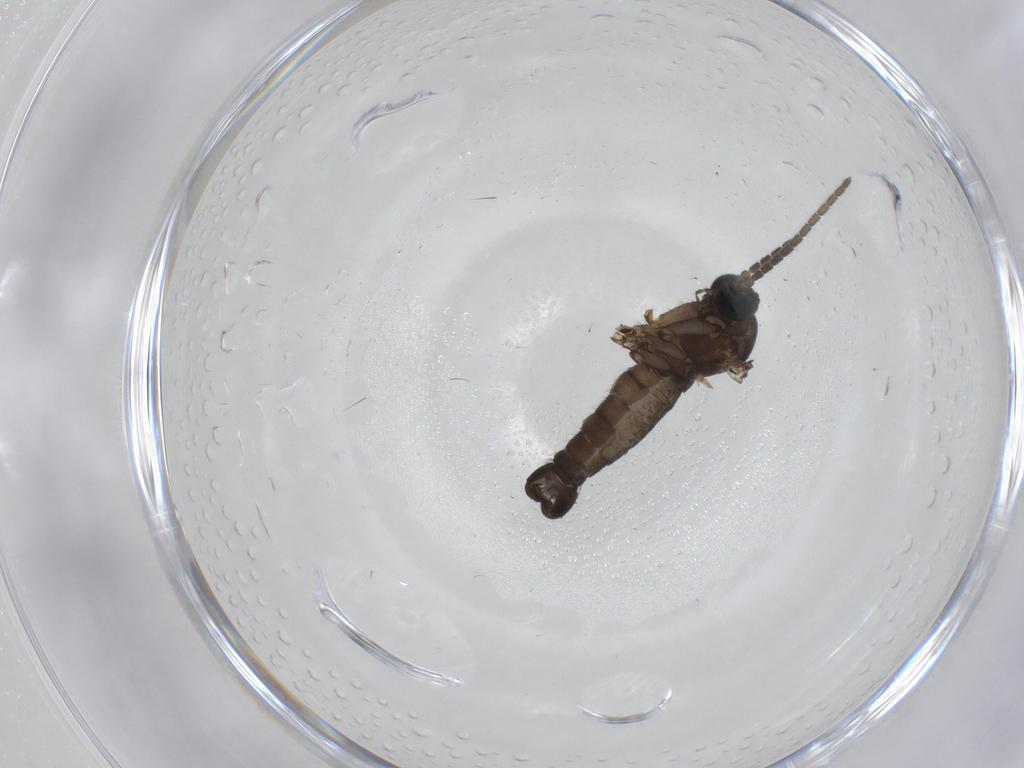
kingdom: Animalia
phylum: Arthropoda
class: Insecta
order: Diptera
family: Sciaridae
